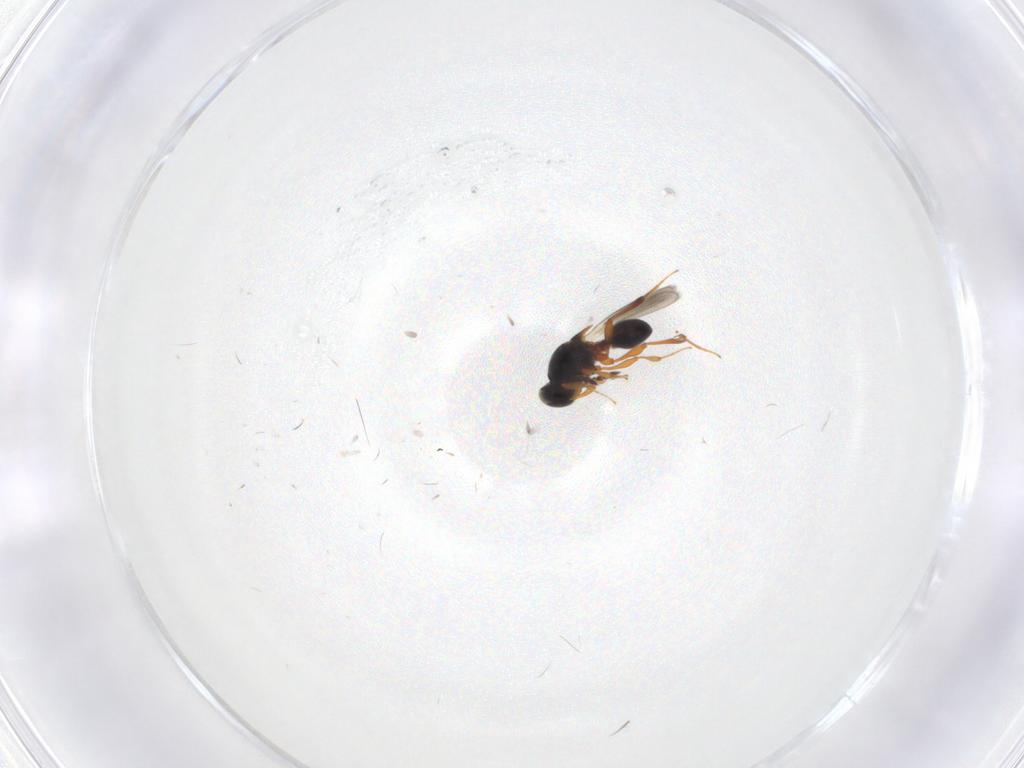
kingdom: Animalia
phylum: Arthropoda
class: Insecta
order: Hymenoptera
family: Platygastridae
